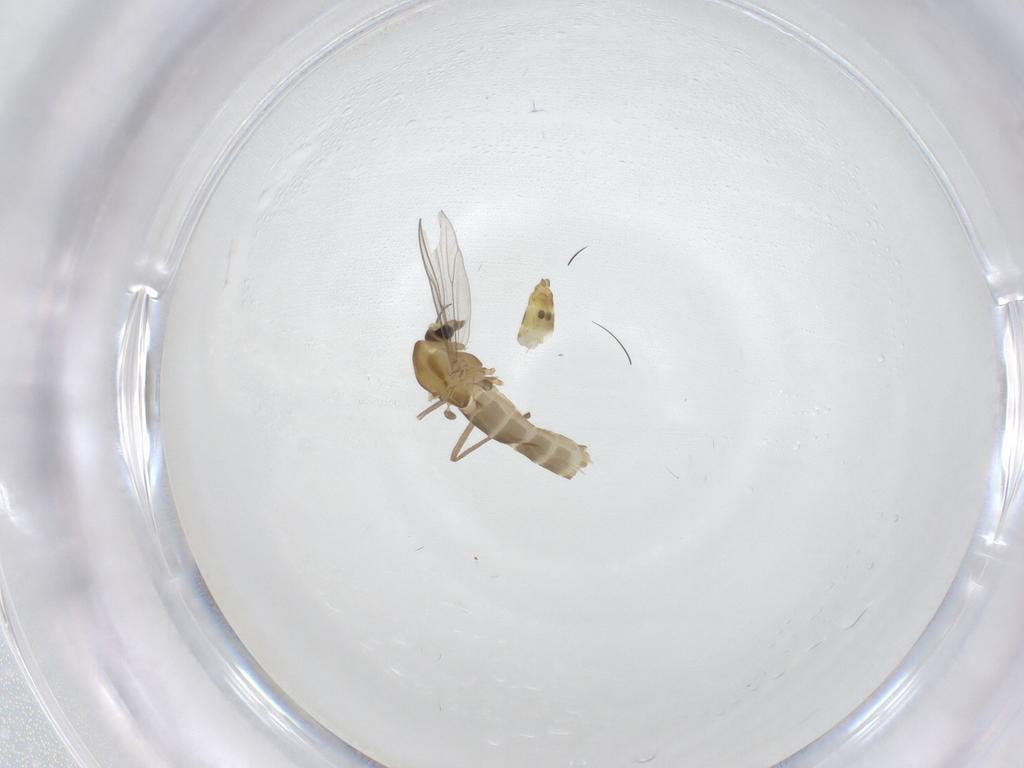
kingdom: Animalia
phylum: Arthropoda
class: Insecta
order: Diptera
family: Chironomidae
